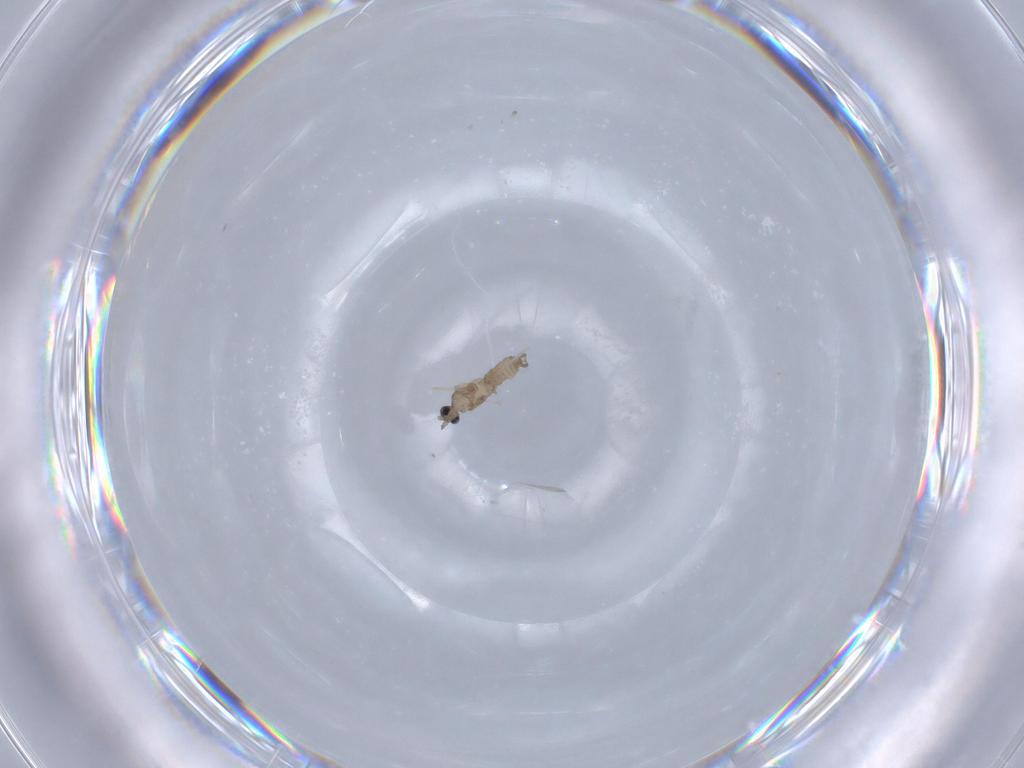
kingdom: Animalia
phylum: Arthropoda
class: Insecta
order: Diptera
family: Cecidomyiidae
